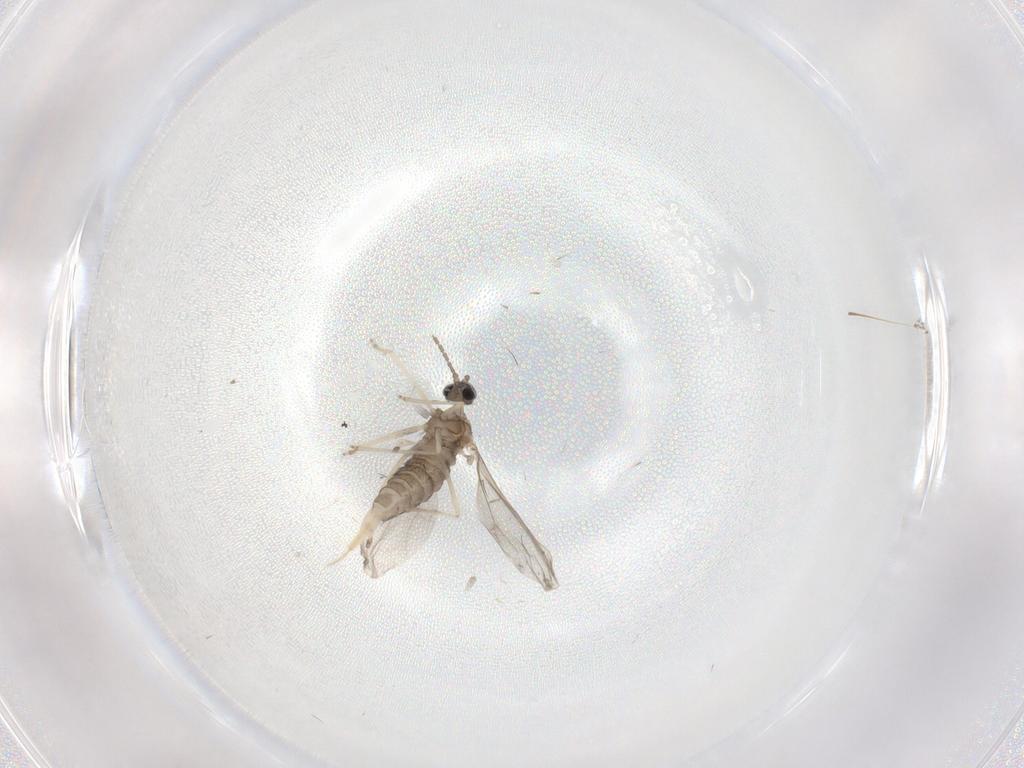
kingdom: Animalia
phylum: Arthropoda
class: Insecta
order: Diptera
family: Cecidomyiidae
